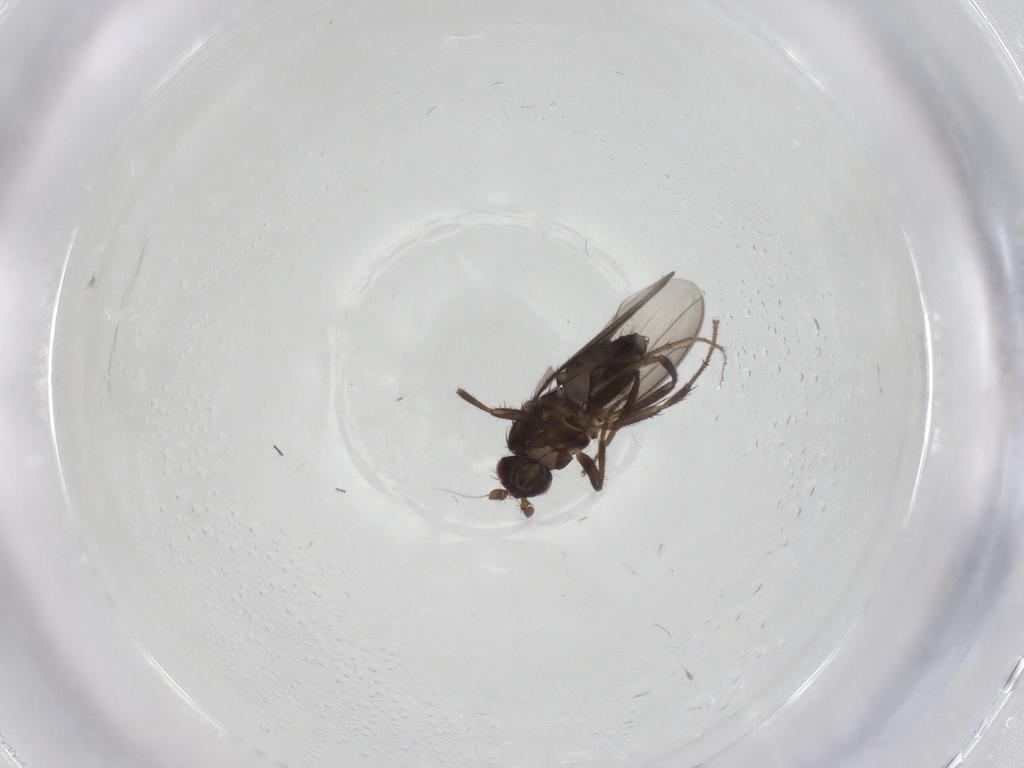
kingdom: Animalia
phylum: Arthropoda
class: Insecta
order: Diptera
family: Sphaeroceridae
